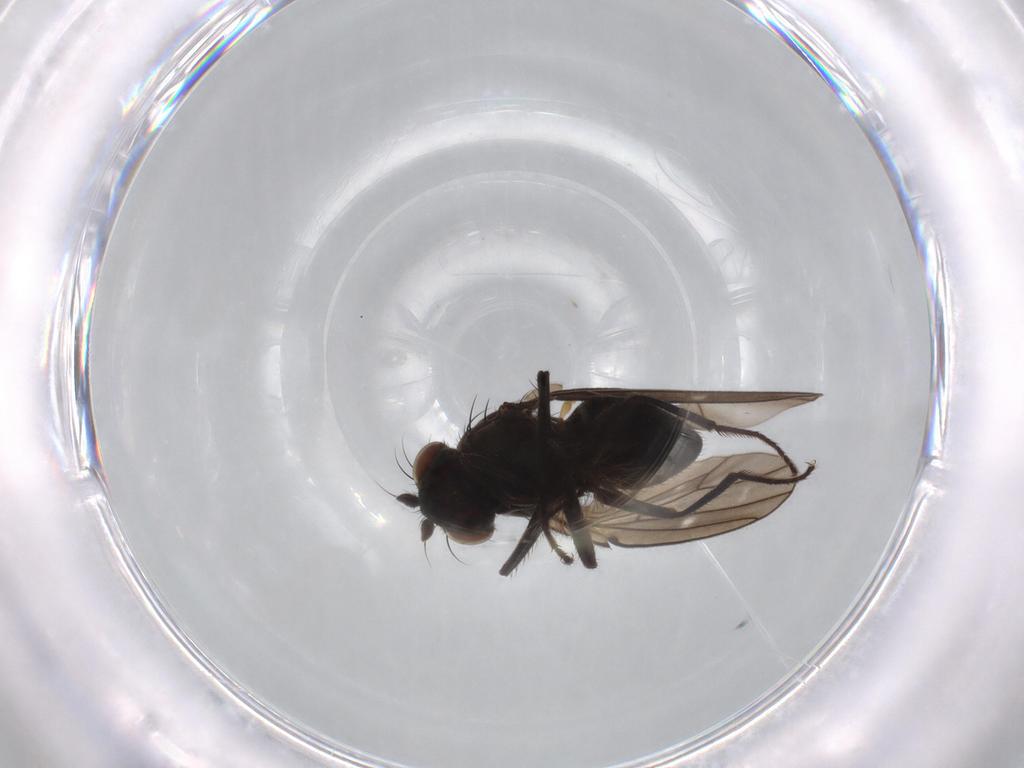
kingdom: Animalia
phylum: Arthropoda
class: Insecta
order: Diptera
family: Ephydridae
